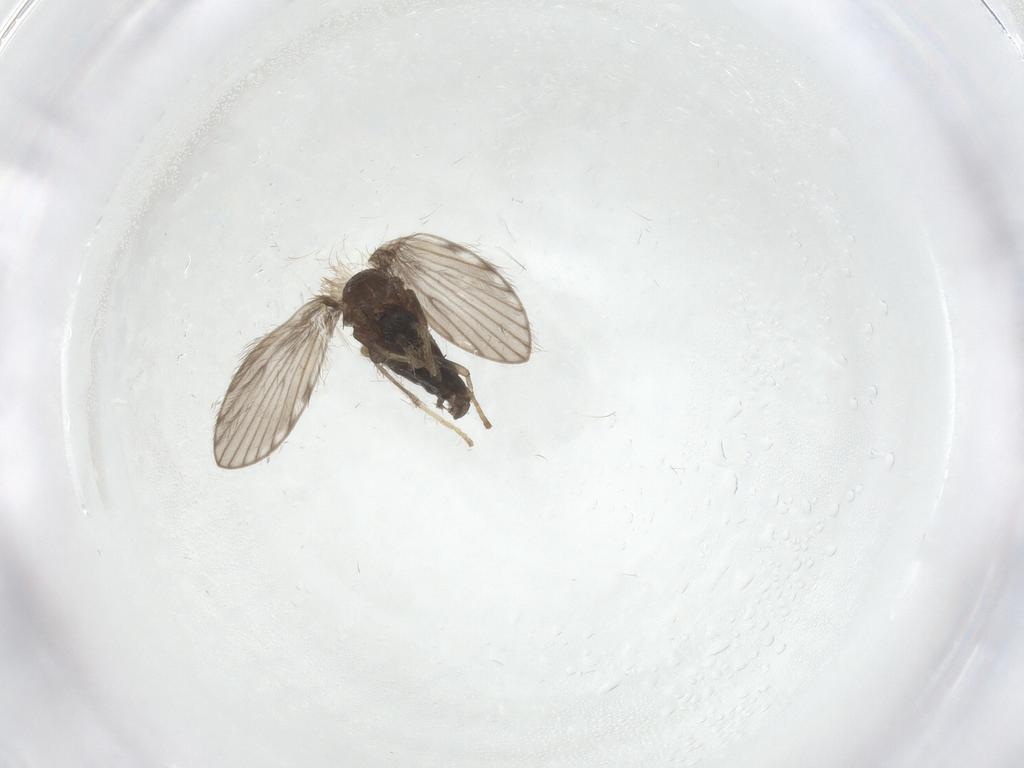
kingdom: Animalia
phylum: Arthropoda
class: Insecta
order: Diptera
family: Psychodidae
